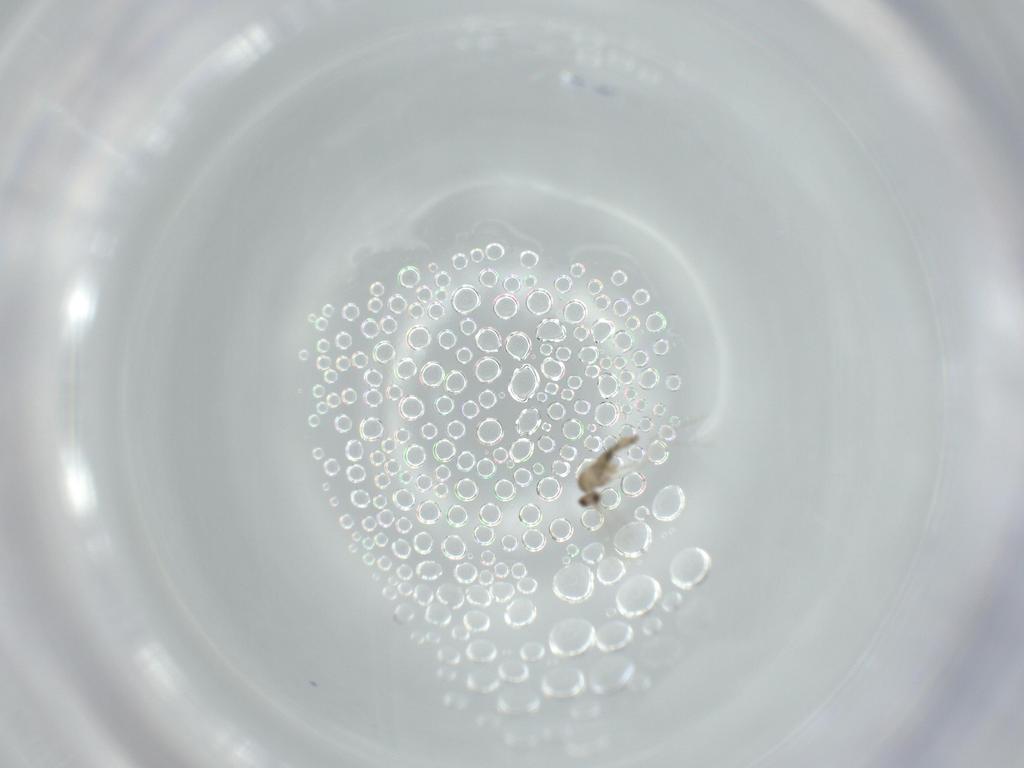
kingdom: Animalia
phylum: Arthropoda
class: Insecta
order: Diptera
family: Cecidomyiidae
